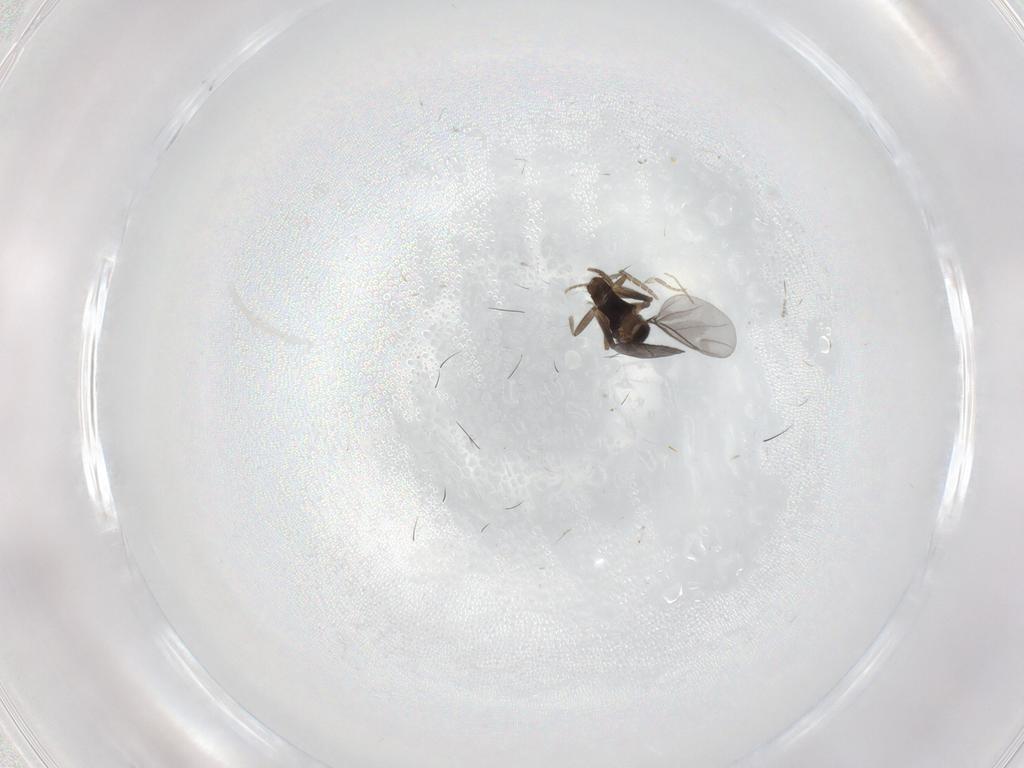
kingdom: Animalia
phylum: Arthropoda
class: Insecta
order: Diptera
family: Sciaridae
